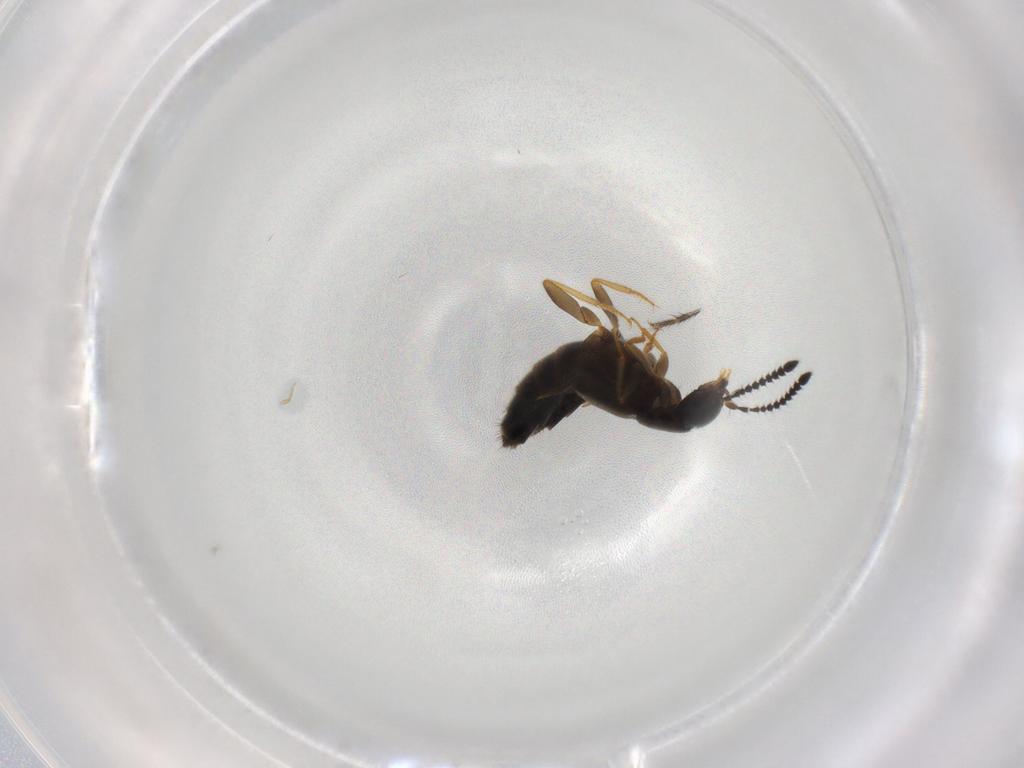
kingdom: Animalia
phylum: Arthropoda
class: Insecta
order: Coleoptera
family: Staphylinidae
